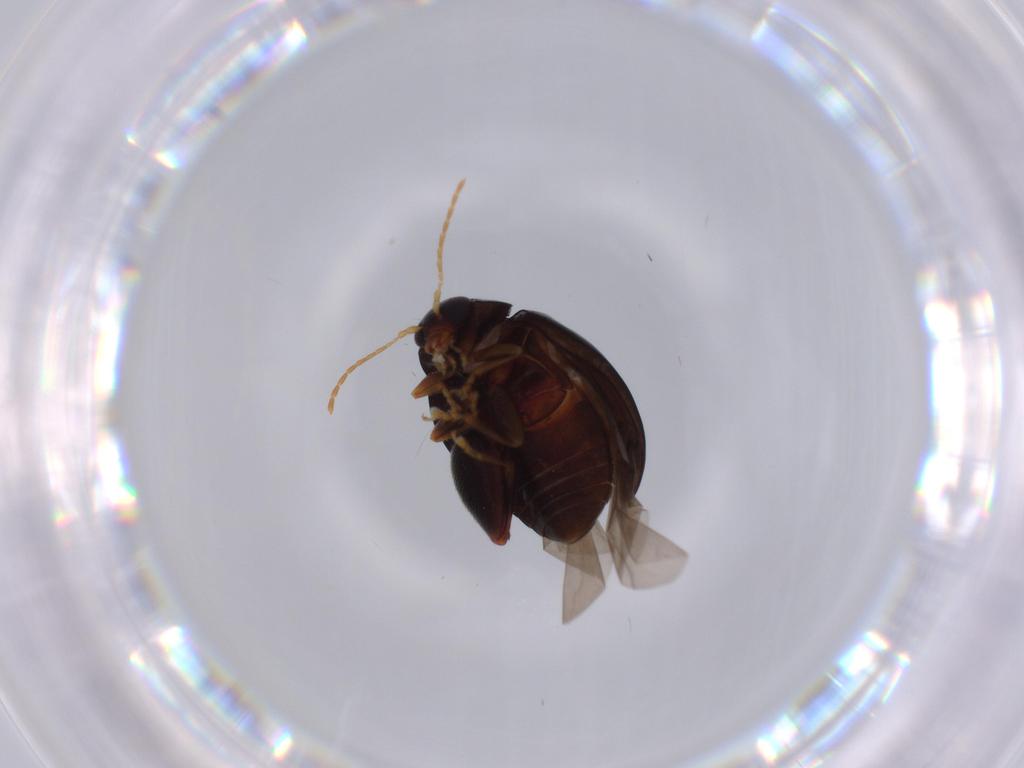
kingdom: Animalia
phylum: Arthropoda
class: Insecta
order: Coleoptera
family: Chrysomelidae
